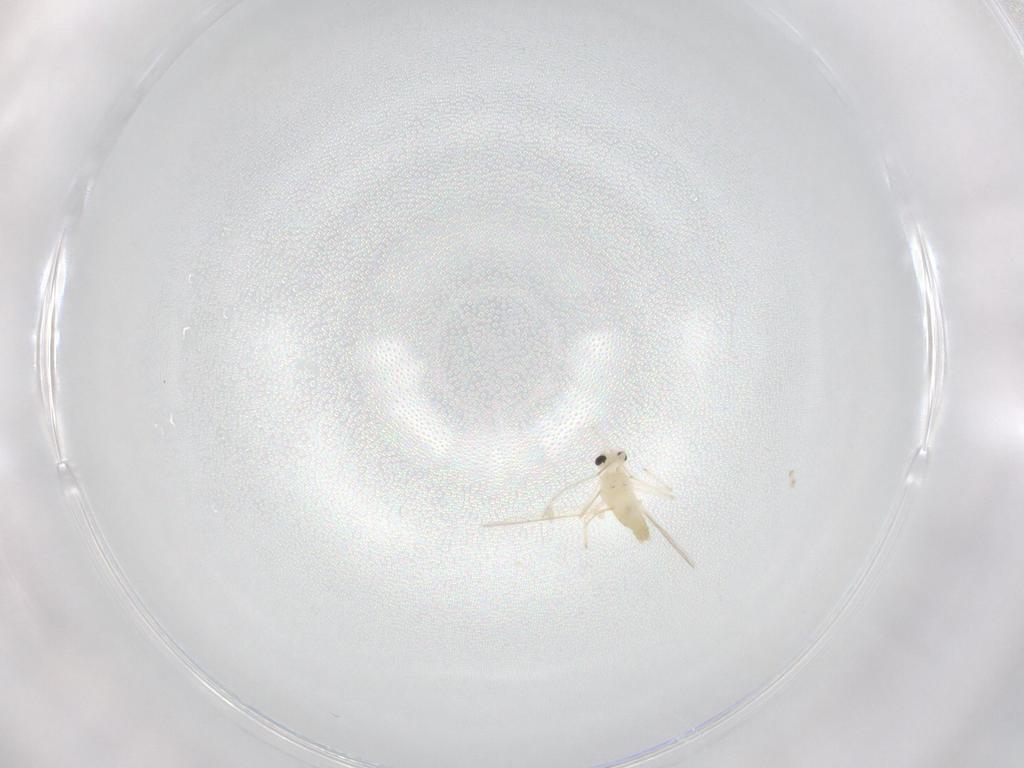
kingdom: Animalia
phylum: Arthropoda
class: Insecta
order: Diptera
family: Chironomidae
